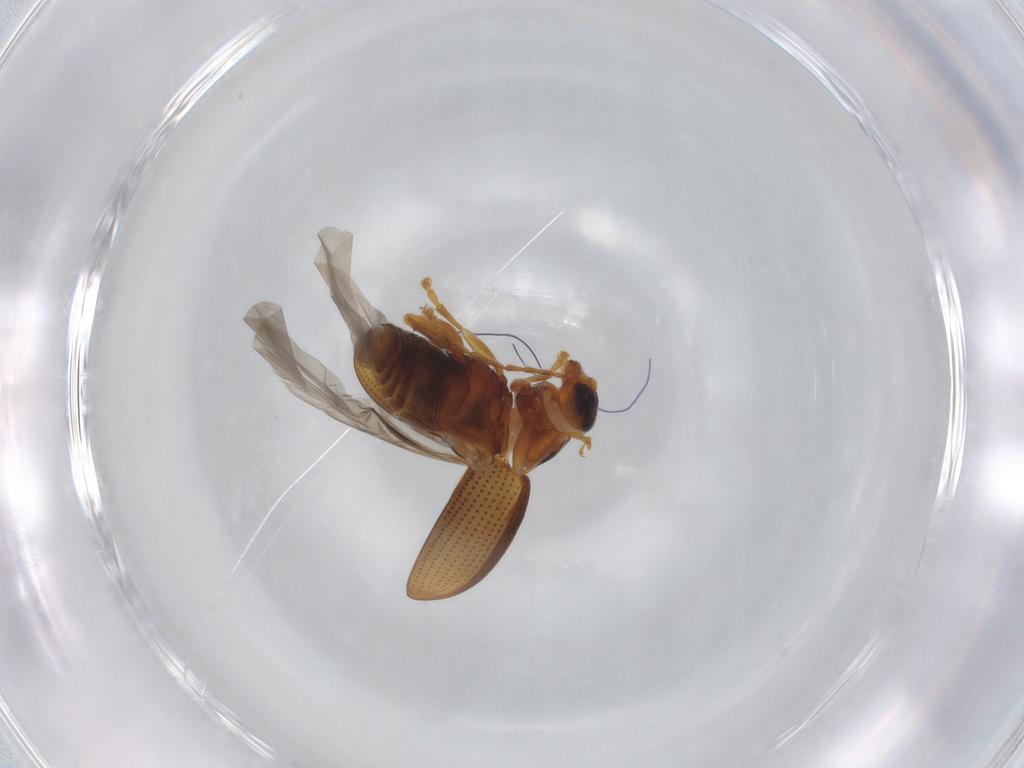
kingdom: Animalia
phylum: Arthropoda
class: Insecta
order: Coleoptera
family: Chrysomelidae
